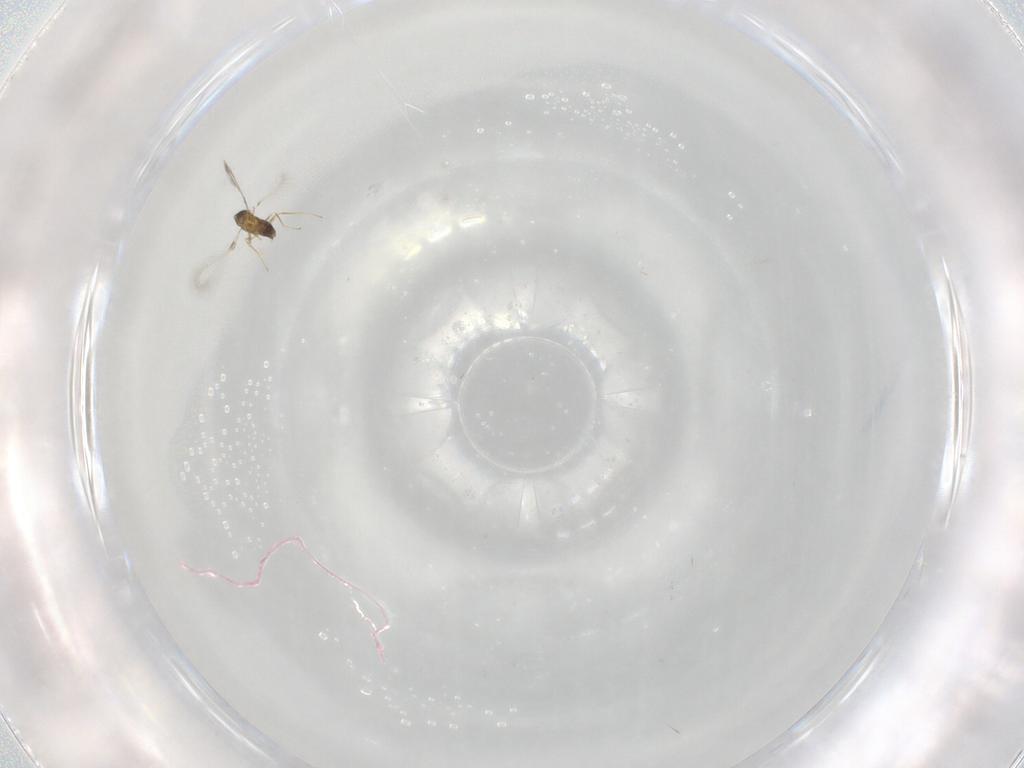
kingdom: Animalia
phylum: Arthropoda
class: Insecta
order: Hymenoptera
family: Mymaridae
